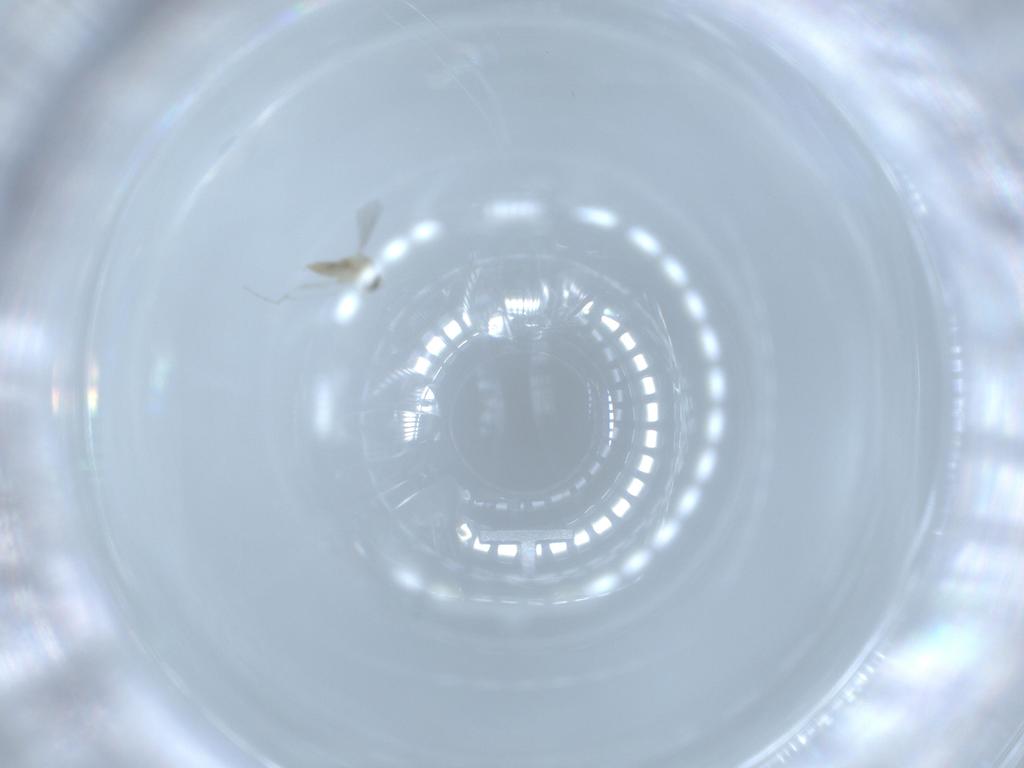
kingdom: Animalia
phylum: Arthropoda
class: Insecta
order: Diptera
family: Cecidomyiidae
